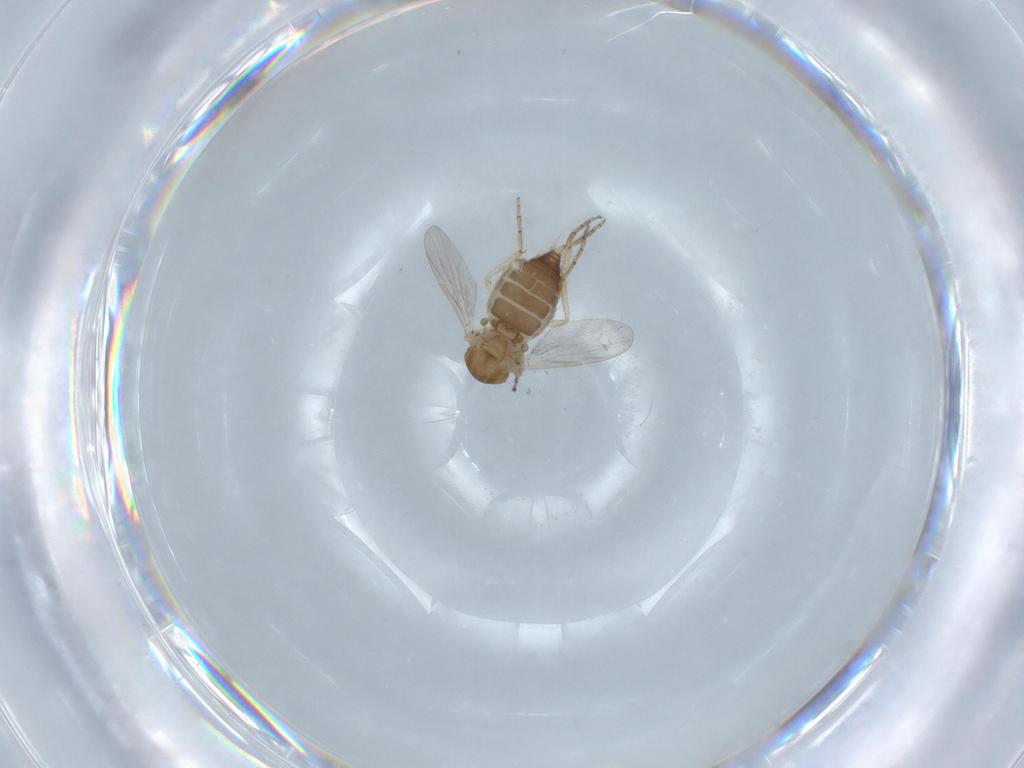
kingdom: Animalia
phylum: Arthropoda
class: Insecta
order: Diptera
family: Ceratopogonidae
